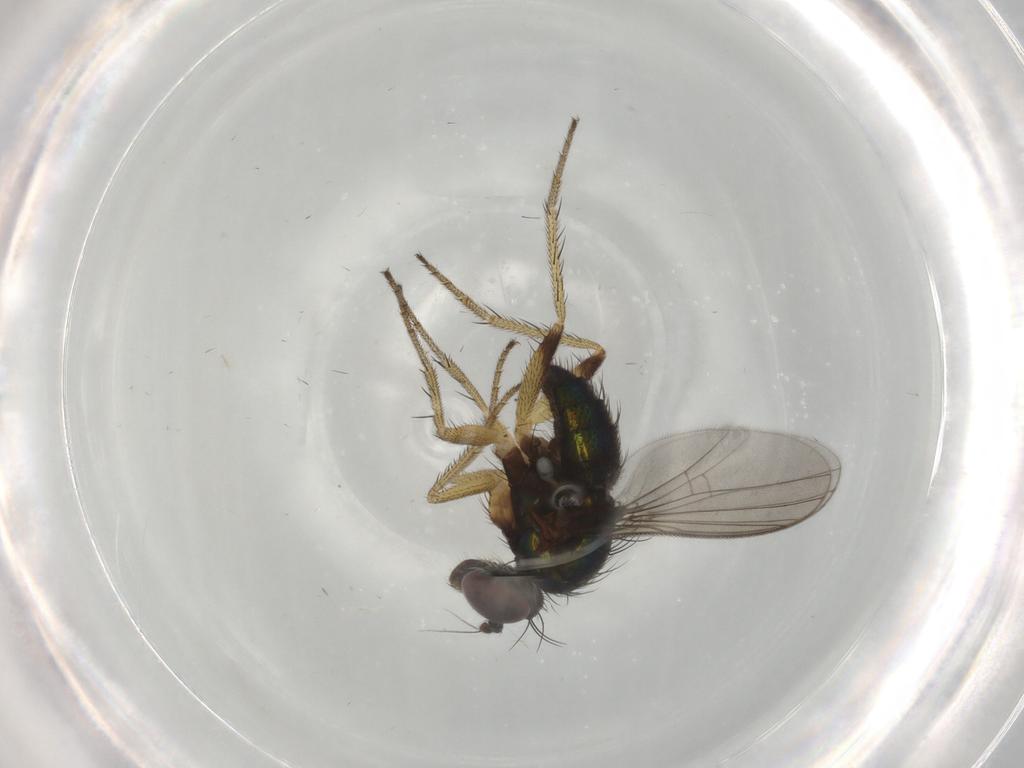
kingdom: Animalia
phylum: Arthropoda
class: Insecta
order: Diptera
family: Dolichopodidae
